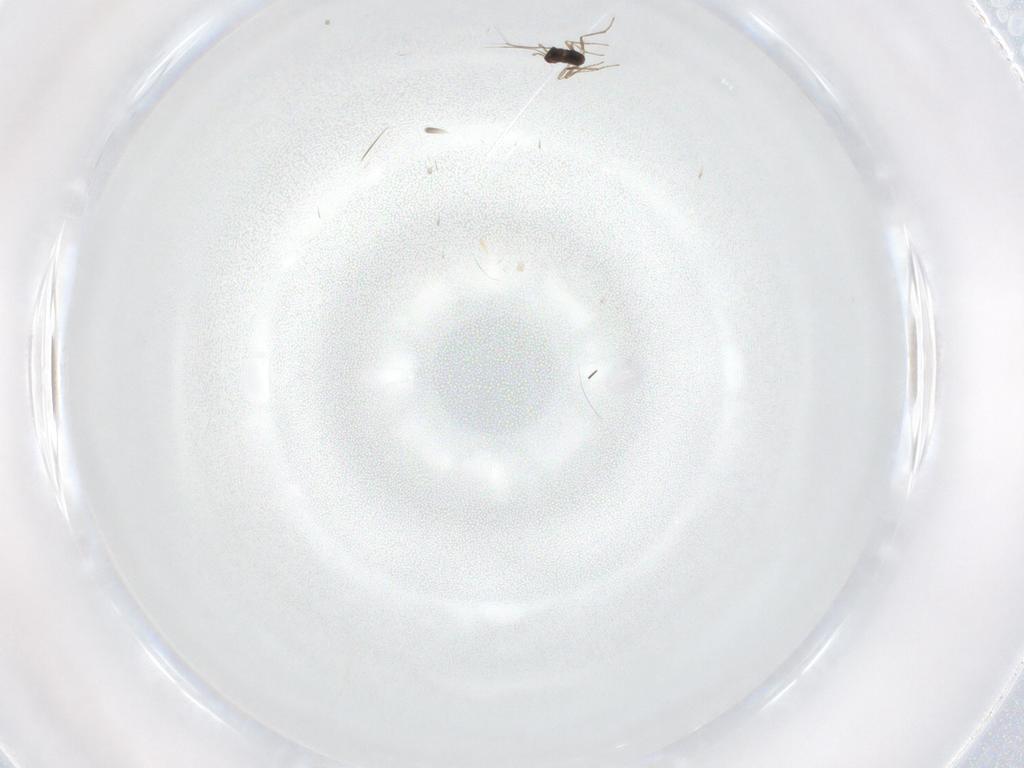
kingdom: Animalia
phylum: Arthropoda
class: Insecta
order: Hymenoptera
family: Mymaridae
